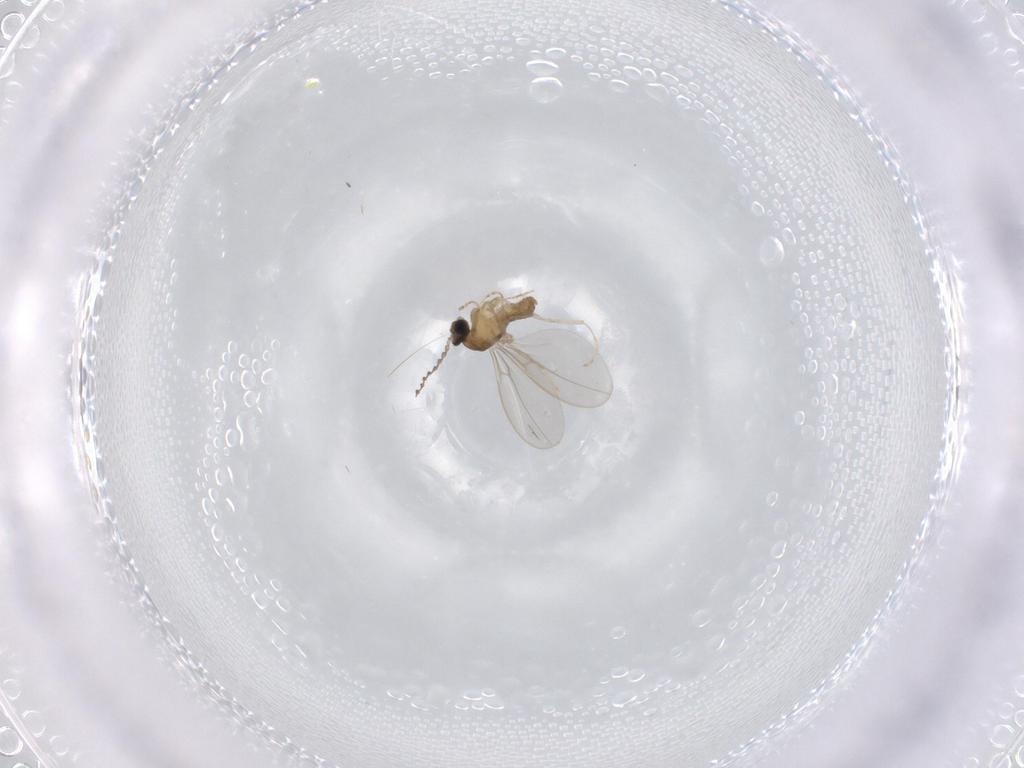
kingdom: Animalia
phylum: Arthropoda
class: Insecta
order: Diptera
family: Cecidomyiidae
